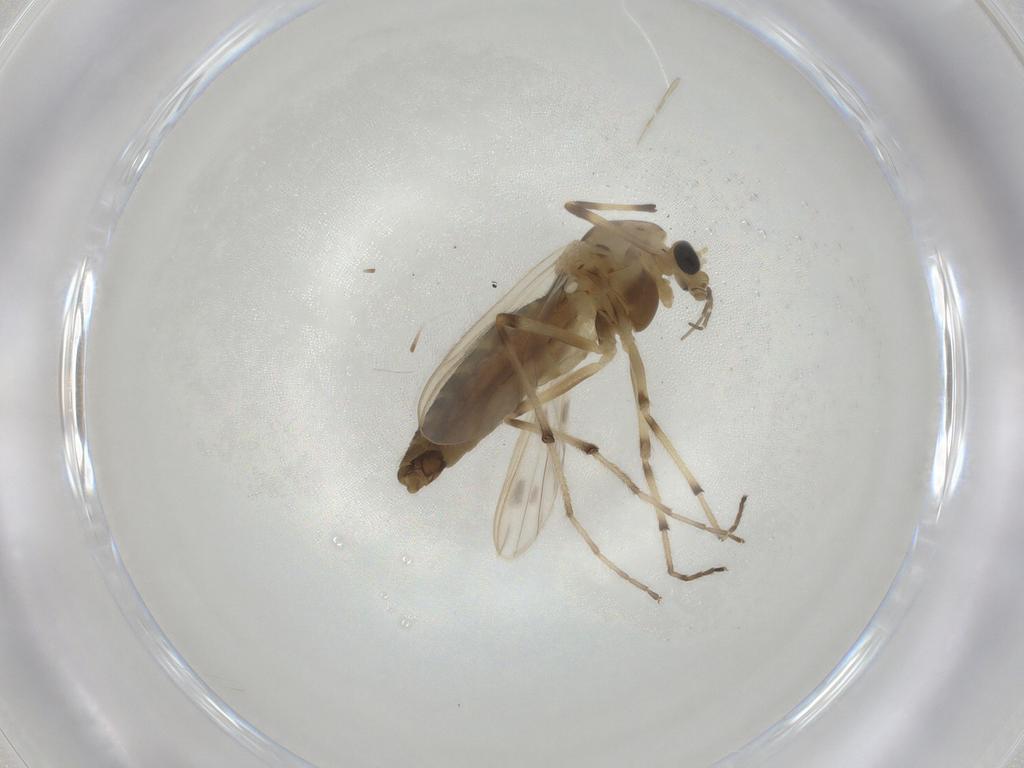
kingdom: Animalia
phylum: Arthropoda
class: Insecta
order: Diptera
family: Chironomidae
